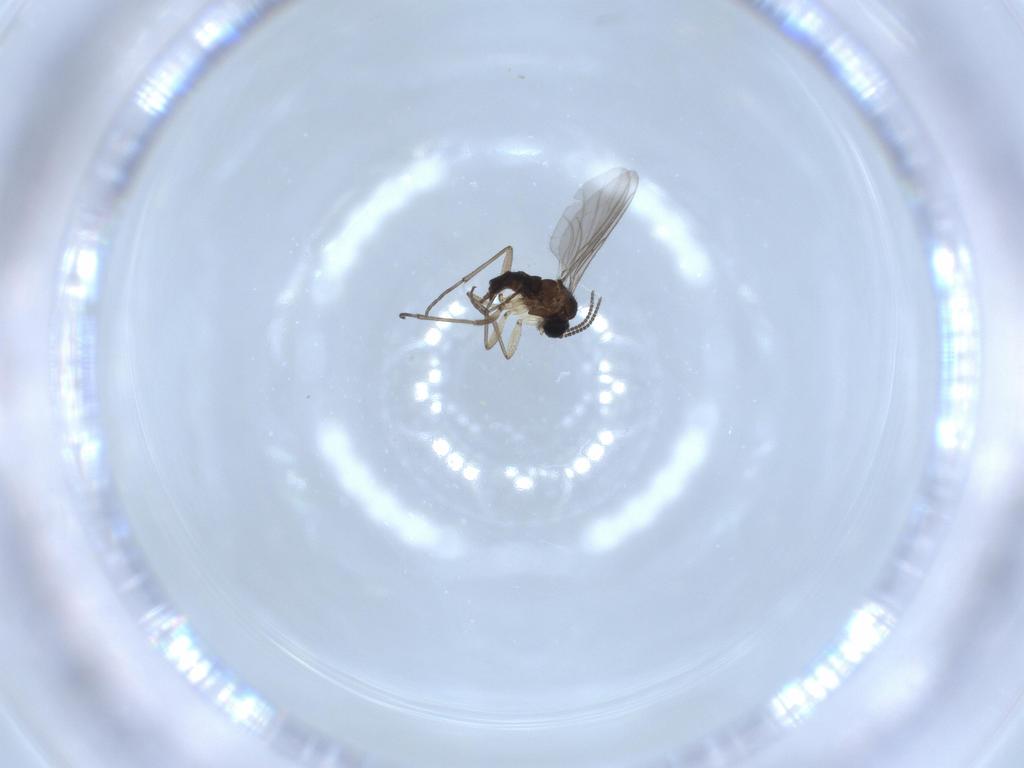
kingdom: Animalia
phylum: Arthropoda
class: Insecta
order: Diptera
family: Sciaridae
